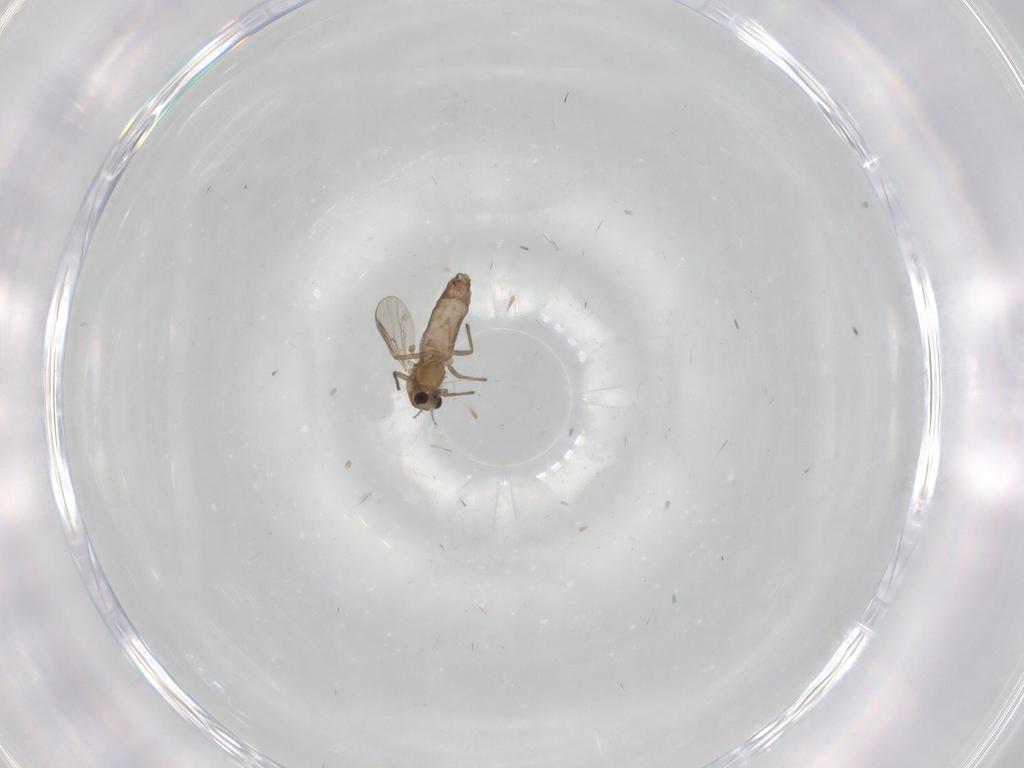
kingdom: Animalia
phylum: Arthropoda
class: Insecta
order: Diptera
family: Chironomidae
